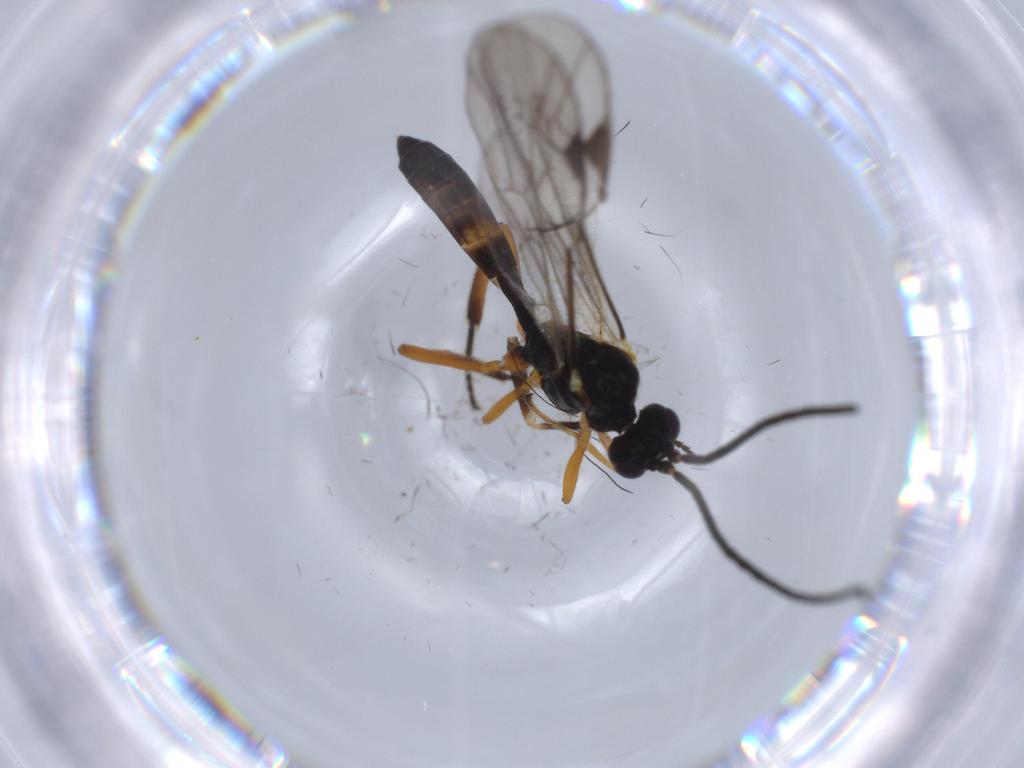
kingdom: Animalia
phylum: Arthropoda
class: Insecta
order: Hymenoptera
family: Ichneumonidae
